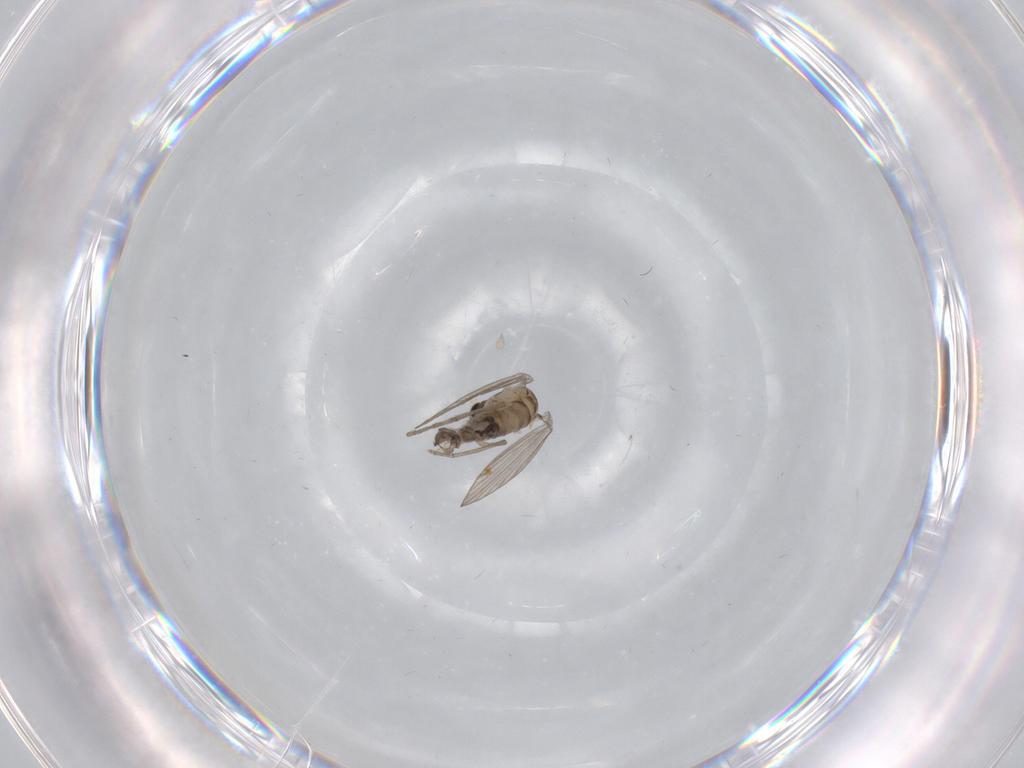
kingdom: Animalia
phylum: Arthropoda
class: Insecta
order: Diptera
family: Psychodidae
